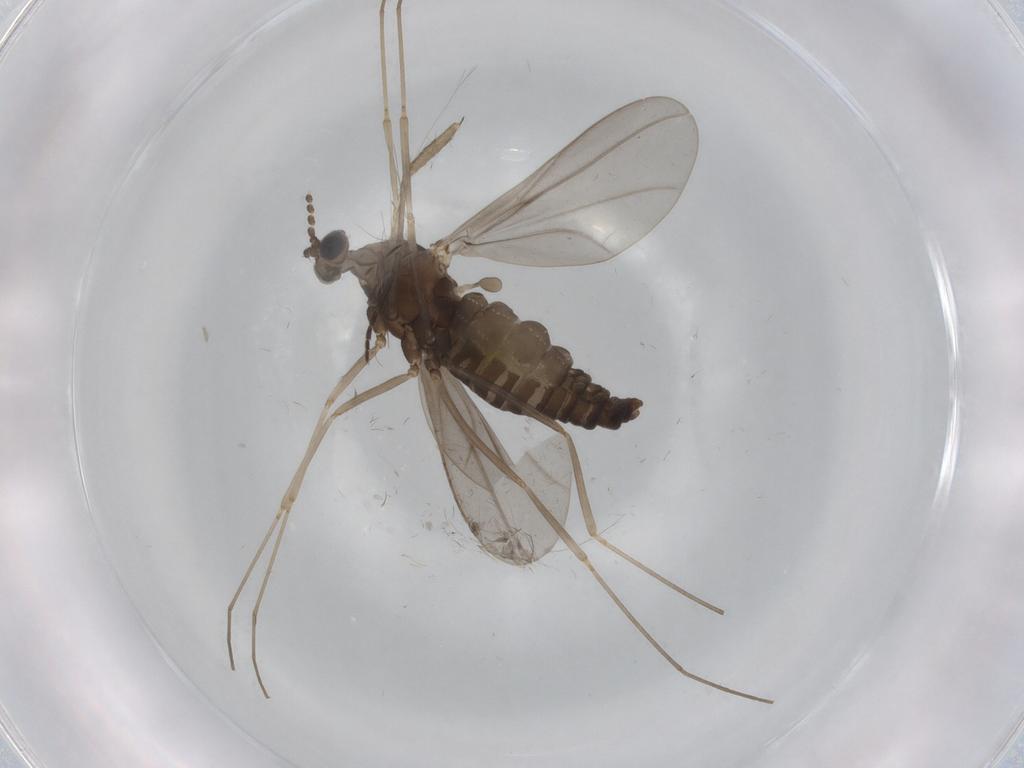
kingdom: Animalia
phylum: Arthropoda
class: Insecta
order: Diptera
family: Cecidomyiidae
